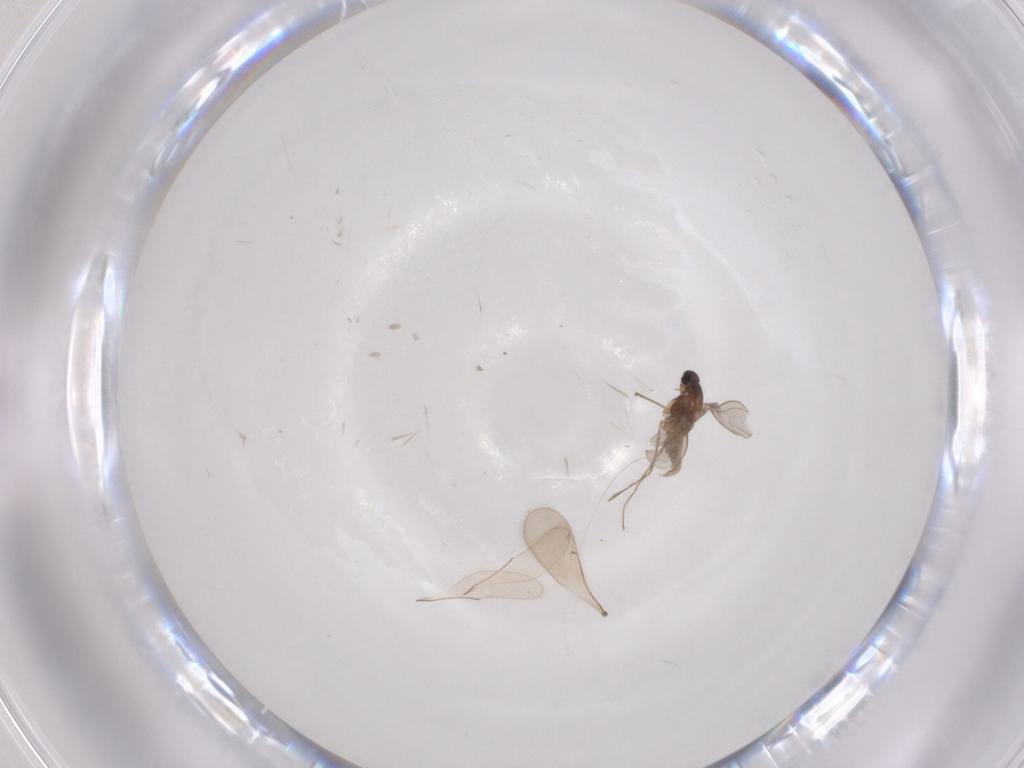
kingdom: Animalia
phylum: Arthropoda
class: Insecta
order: Diptera
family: Cecidomyiidae
